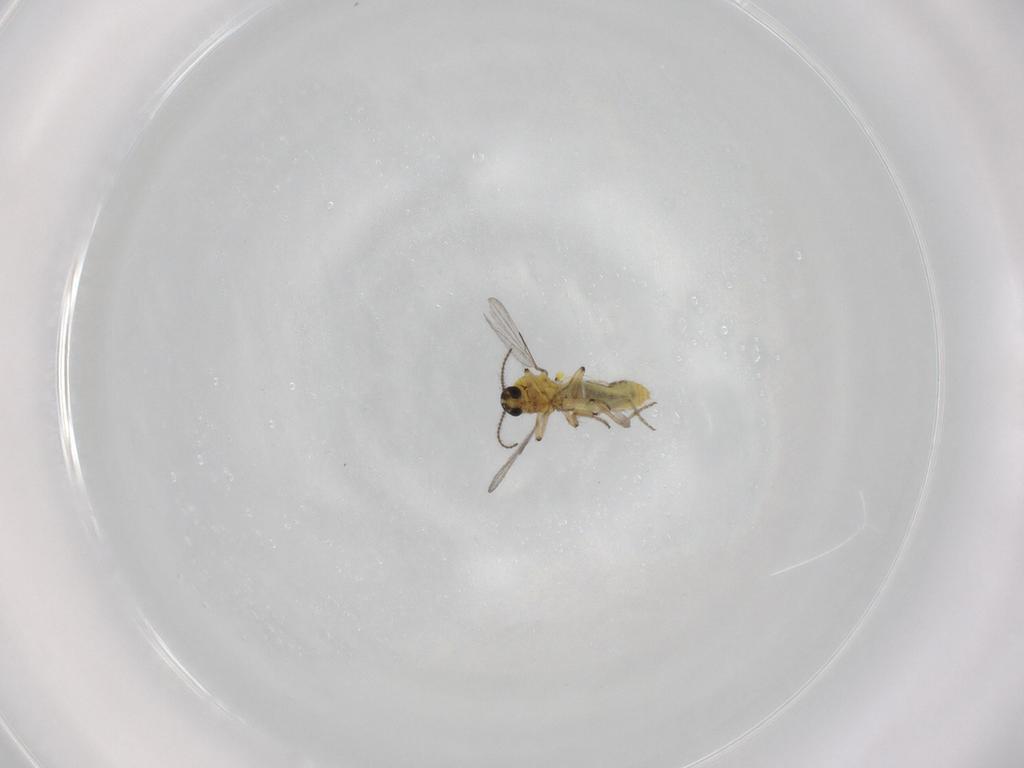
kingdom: Animalia
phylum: Arthropoda
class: Insecta
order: Diptera
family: Ceratopogonidae
